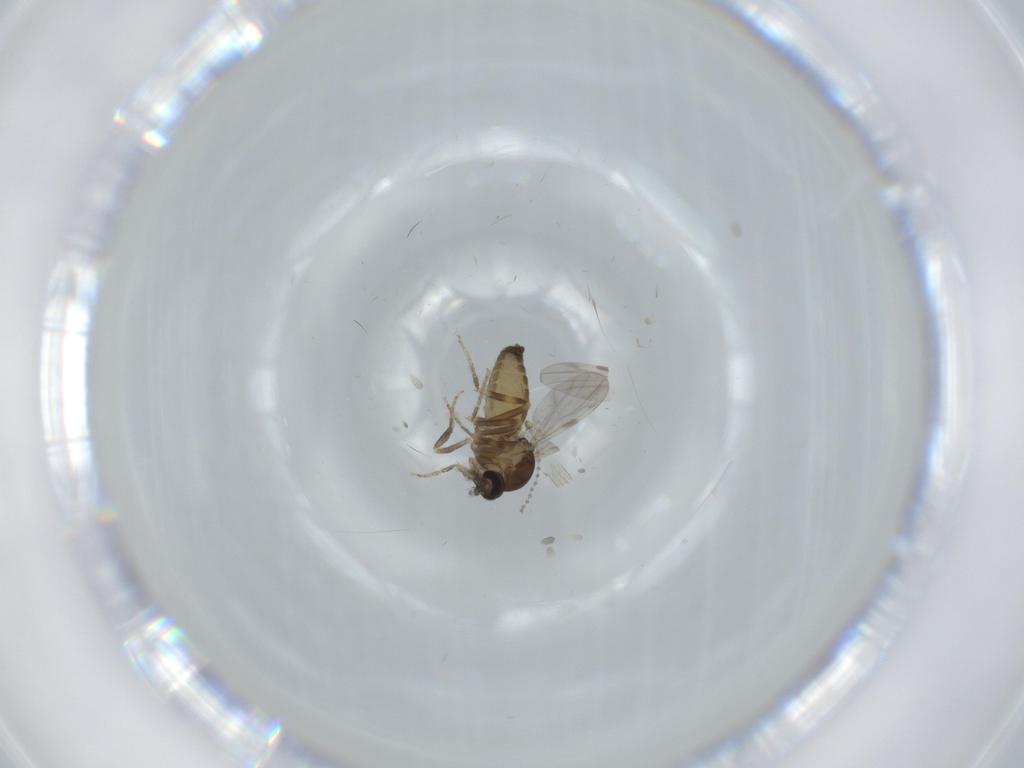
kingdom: Animalia
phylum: Arthropoda
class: Insecta
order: Diptera
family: Ceratopogonidae
